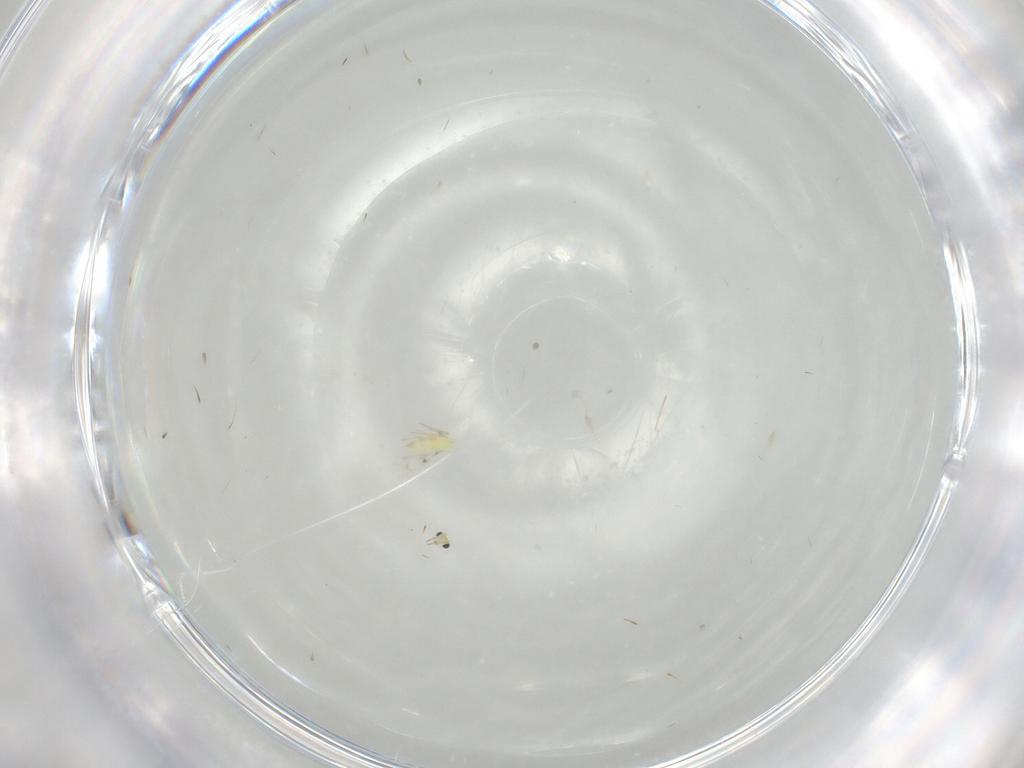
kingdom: Animalia
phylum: Arthropoda
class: Insecta
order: Hymenoptera
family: Trichogrammatidae
